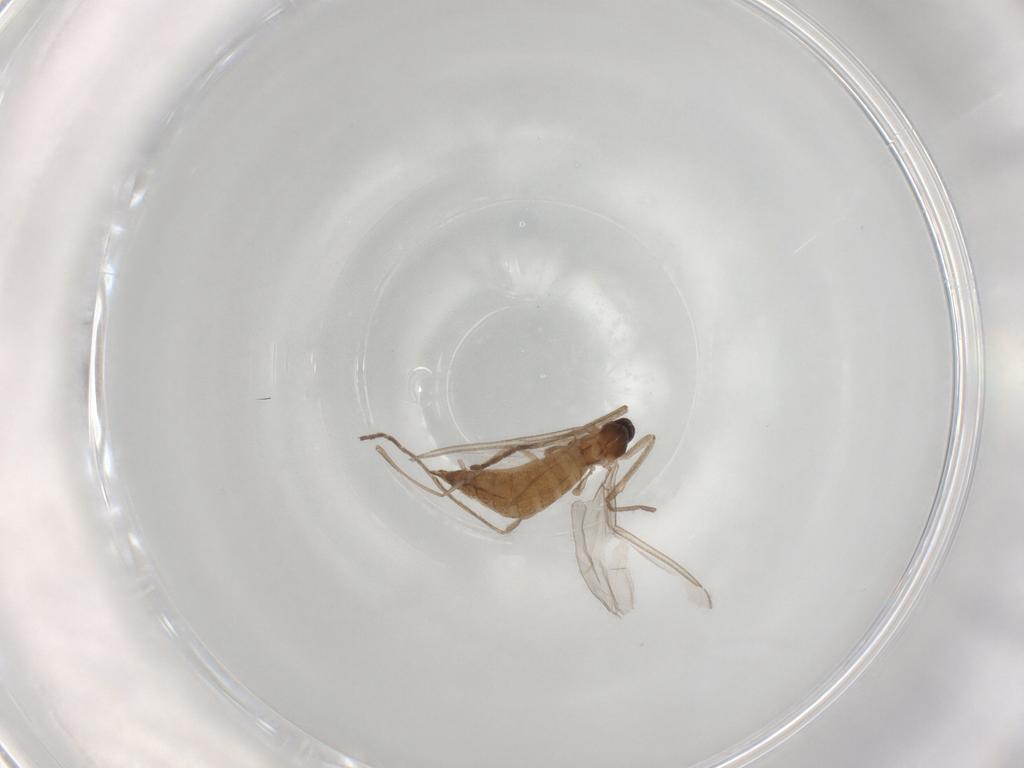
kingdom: Animalia
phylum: Arthropoda
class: Insecta
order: Diptera
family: Cecidomyiidae
